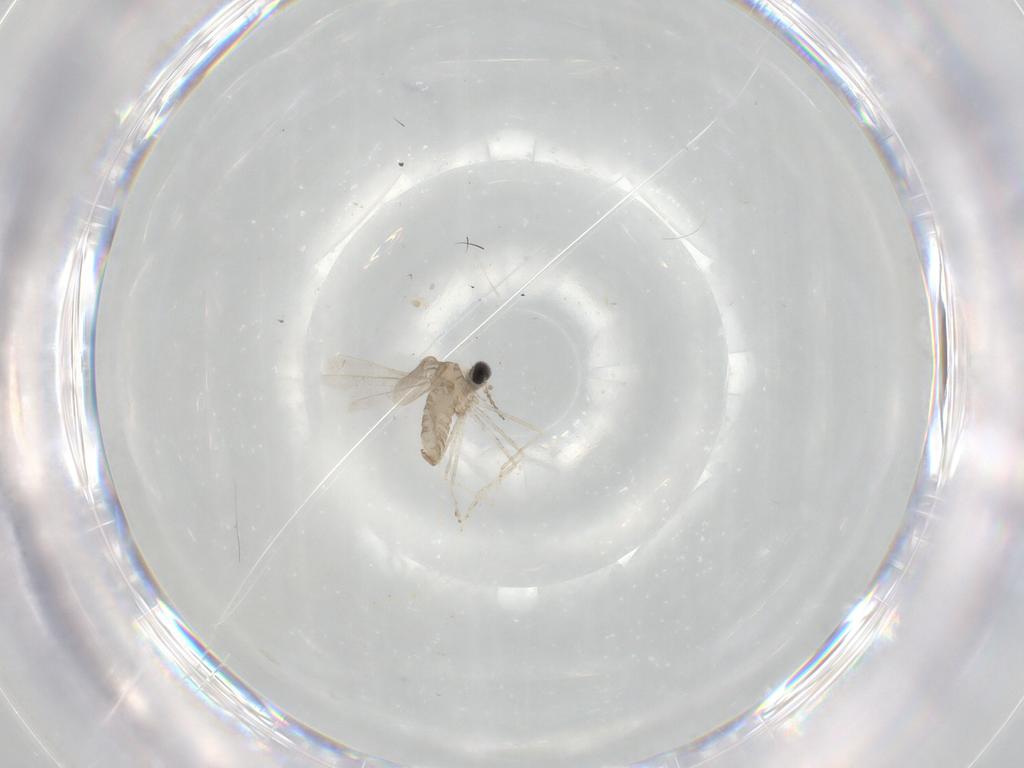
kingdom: Animalia
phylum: Arthropoda
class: Insecta
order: Diptera
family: Cecidomyiidae
